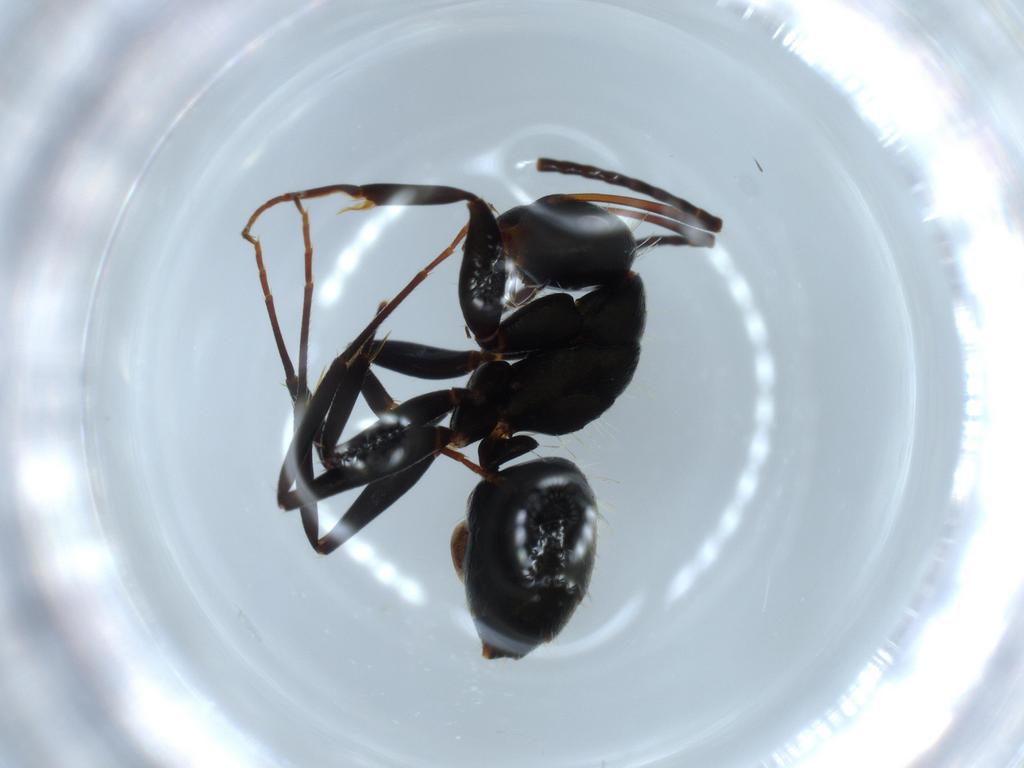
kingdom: Animalia
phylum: Arthropoda
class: Insecta
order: Hymenoptera
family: Formicidae
